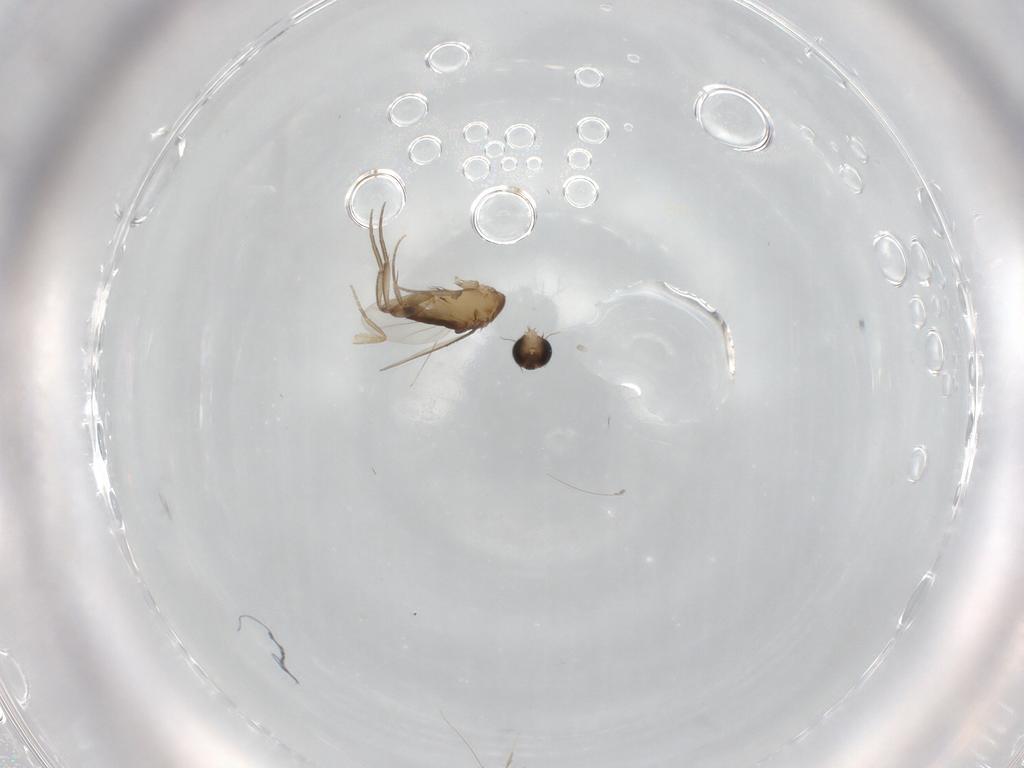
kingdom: Animalia
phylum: Arthropoda
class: Insecta
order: Diptera
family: Phoridae
